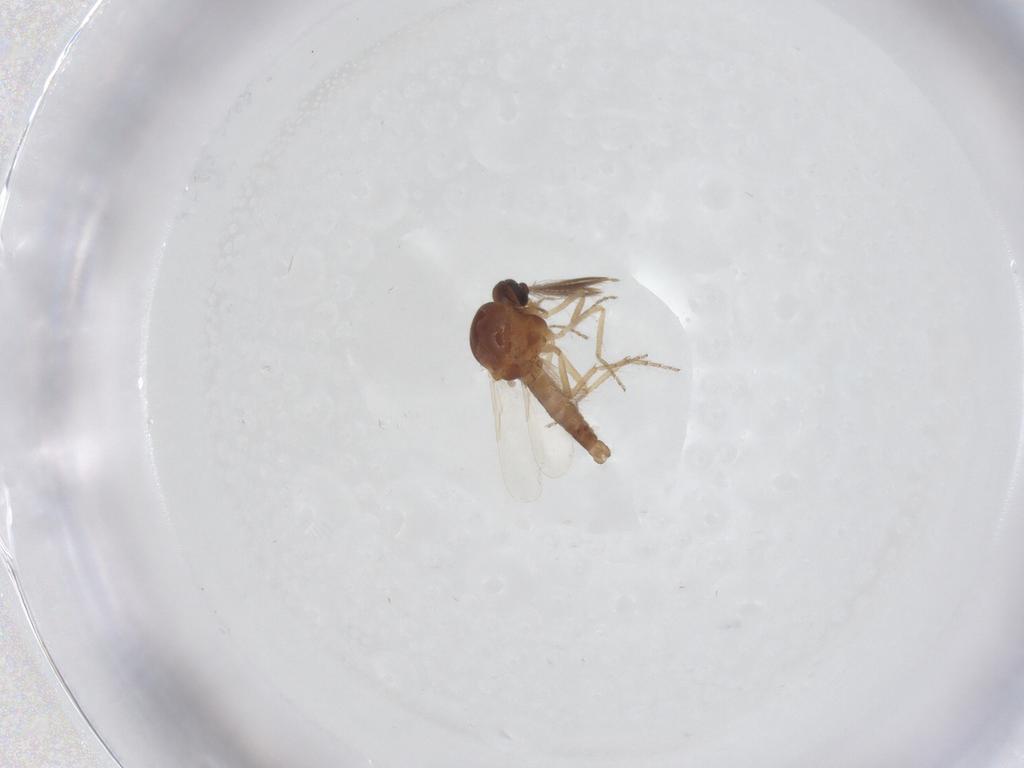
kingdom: Animalia
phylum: Arthropoda
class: Insecta
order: Diptera
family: Ceratopogonidae
